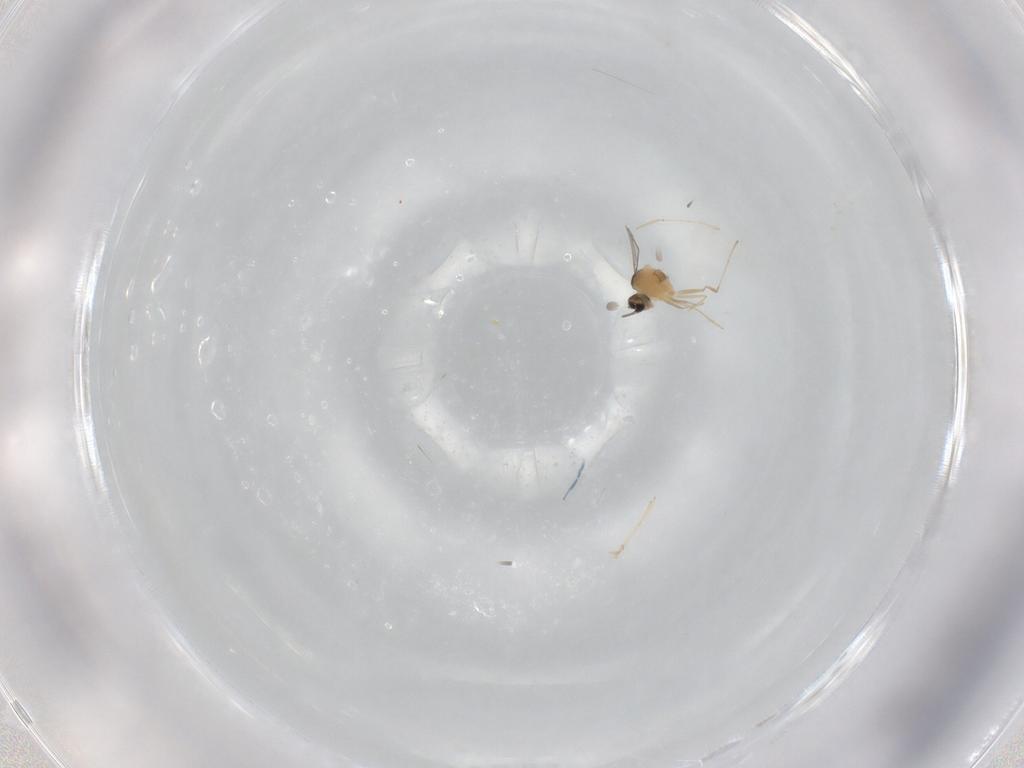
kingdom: Animalia
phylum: Arthropoda
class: Insecta
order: Diptera
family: Cecidomyiidae
